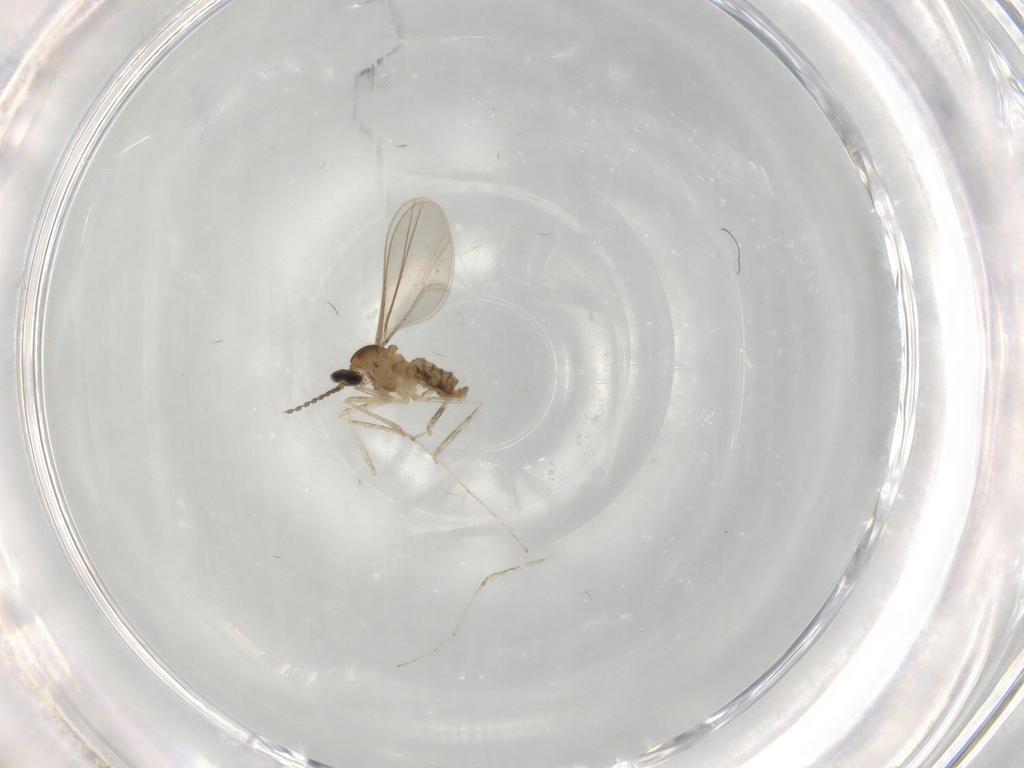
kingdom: Animalia
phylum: Arthropoda
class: Insecta
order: Diptera
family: Cecidomyiidae
